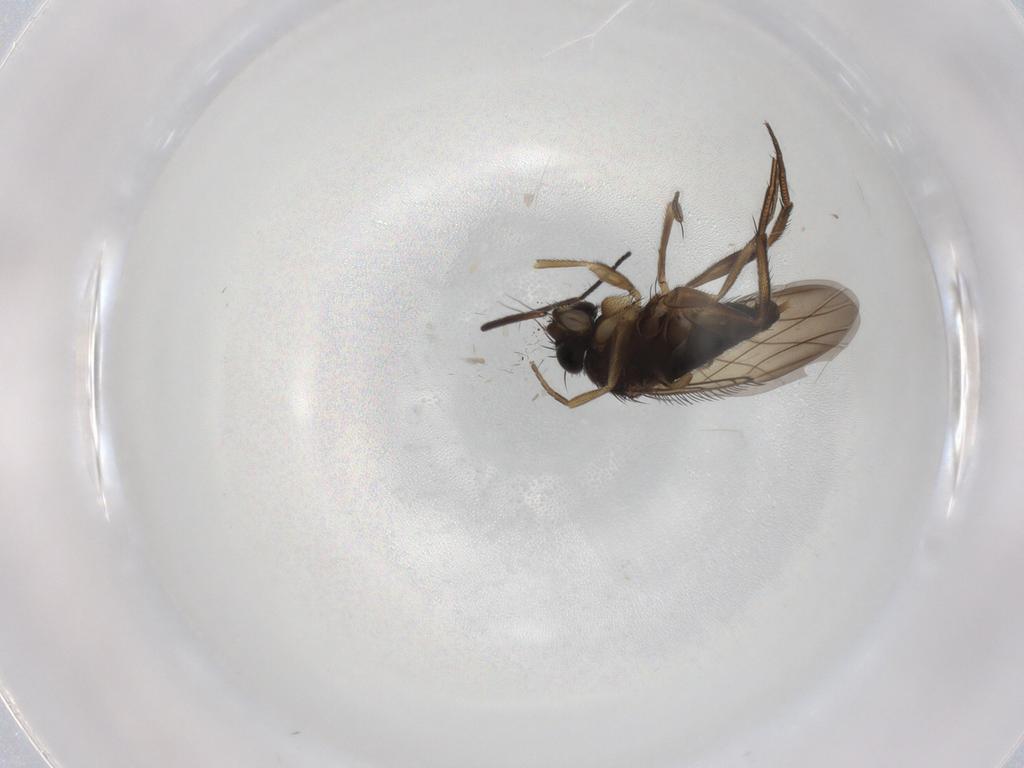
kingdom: Animalia
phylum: Arthropoda
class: Insecta
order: Diptera
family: Phoridae
